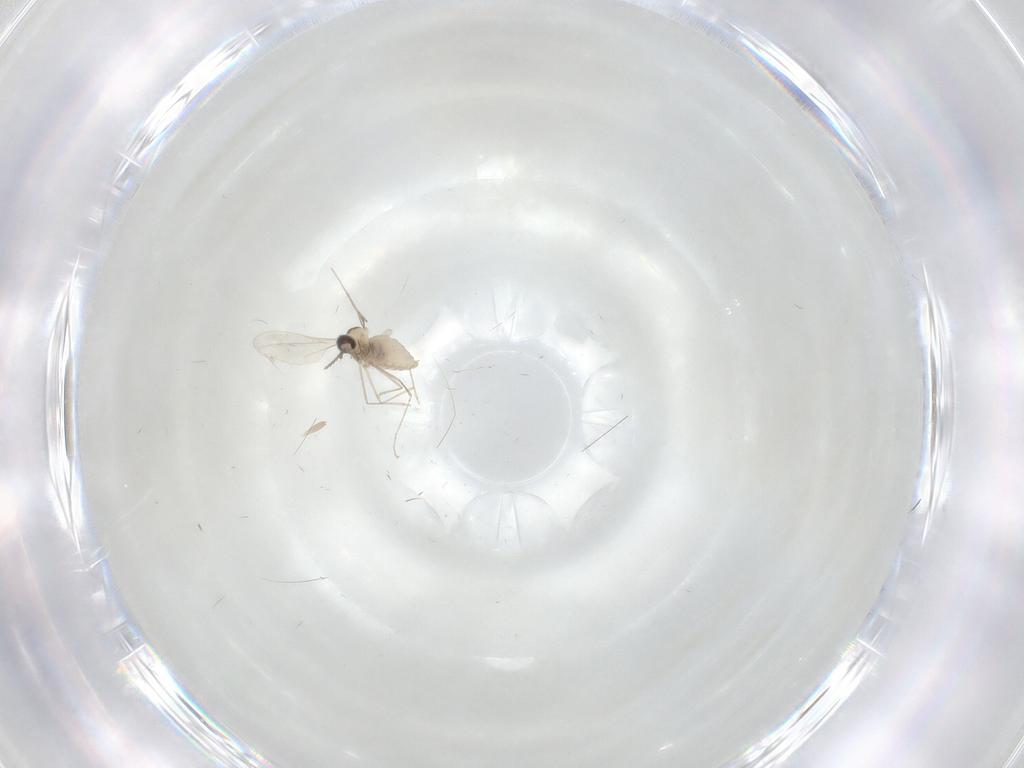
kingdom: Animalia
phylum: Arthropoda
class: Insecta
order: Diptera
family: Cecidomyiidae
